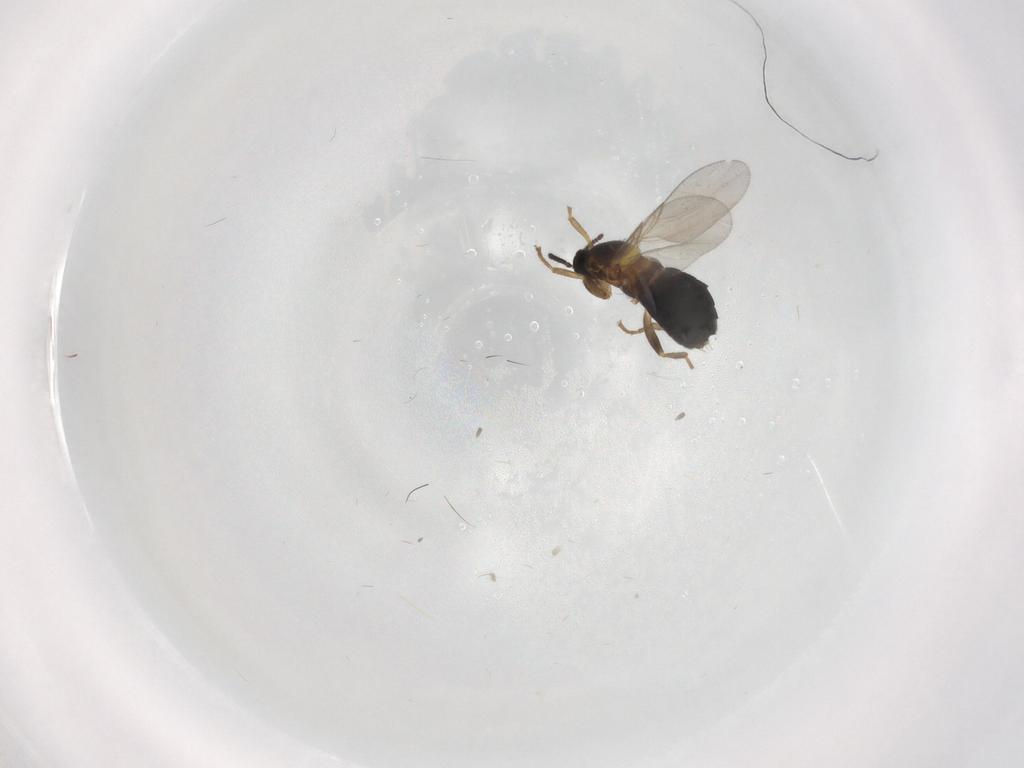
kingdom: Animalia
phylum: Arthropoda
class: Insecta
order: Diptera
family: Scatopsidae
